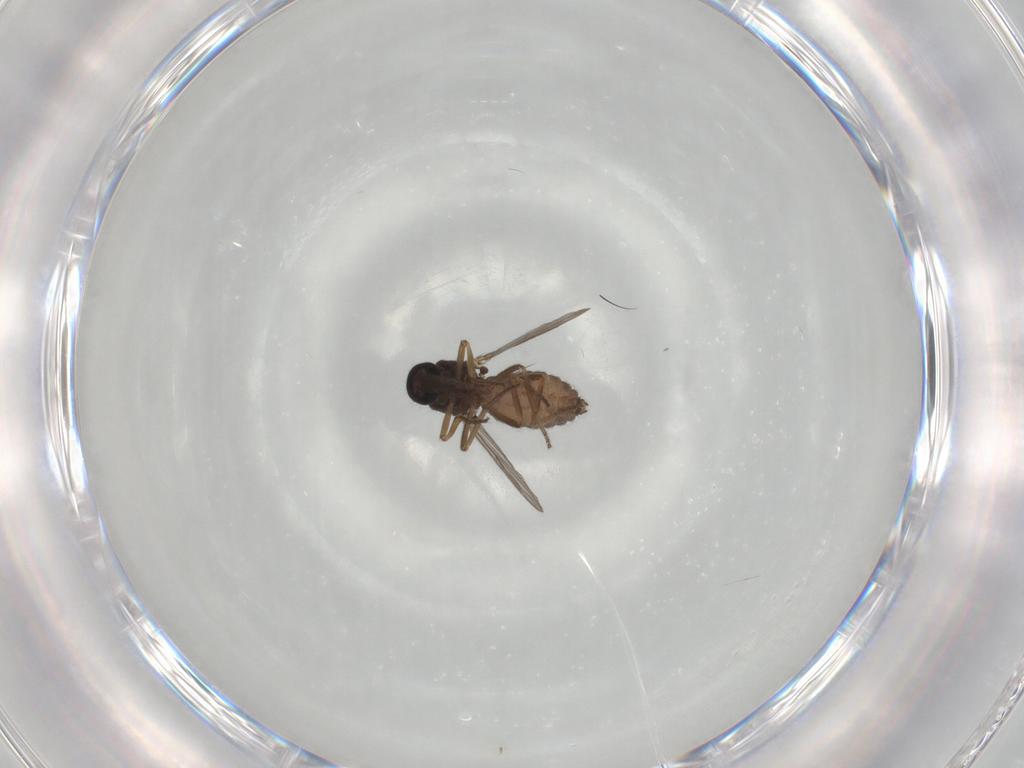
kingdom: Animalia
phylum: Arthropoda
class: Insecta
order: Diptera
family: Ceratopogonidae
